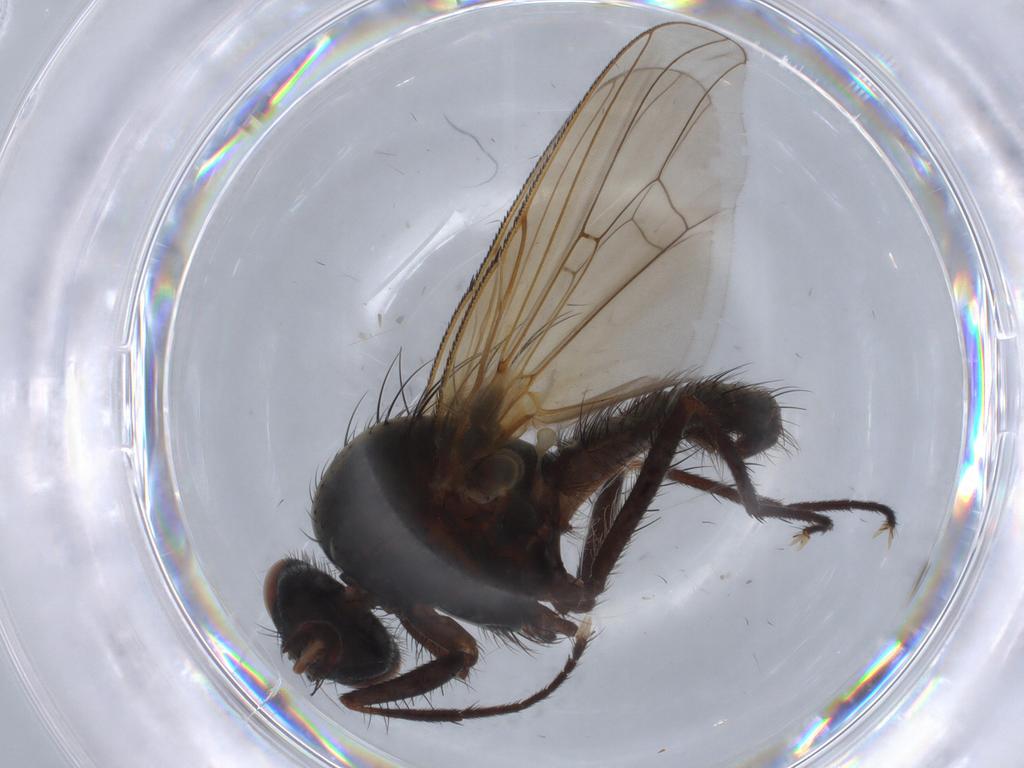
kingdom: Animalia
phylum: Arthropoda
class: Insecta
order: Diptera
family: Anthomyiidae
